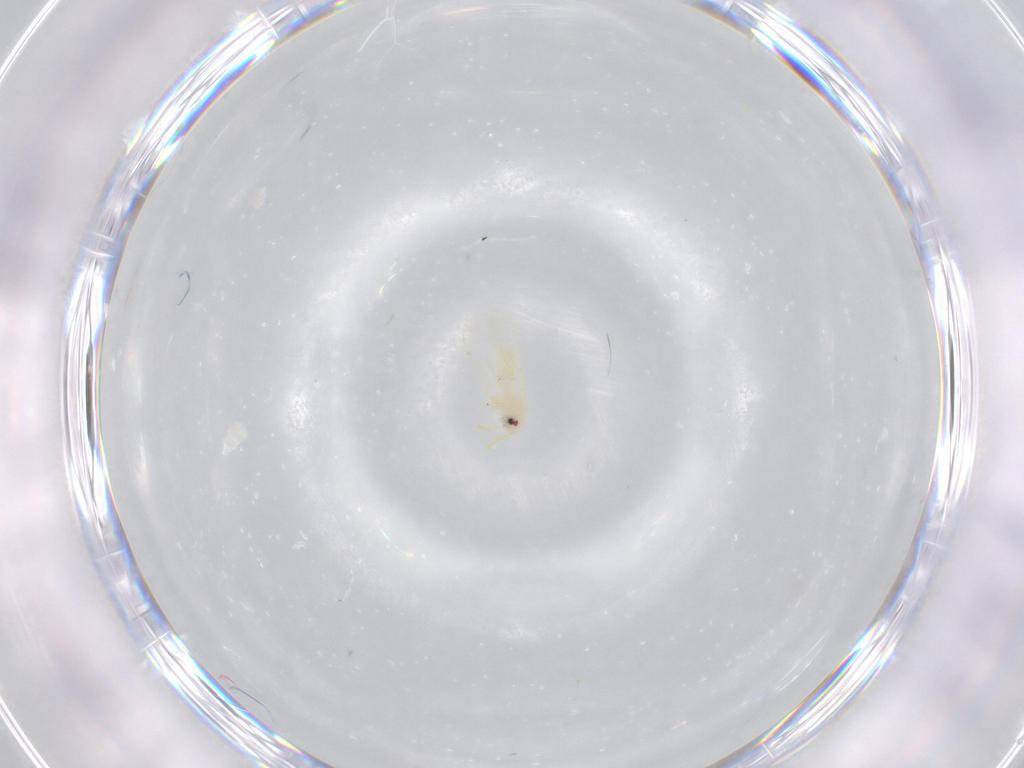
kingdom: Animalia
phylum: Arthropoda
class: Insecta
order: Hemiptera
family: Aleyrodidae
